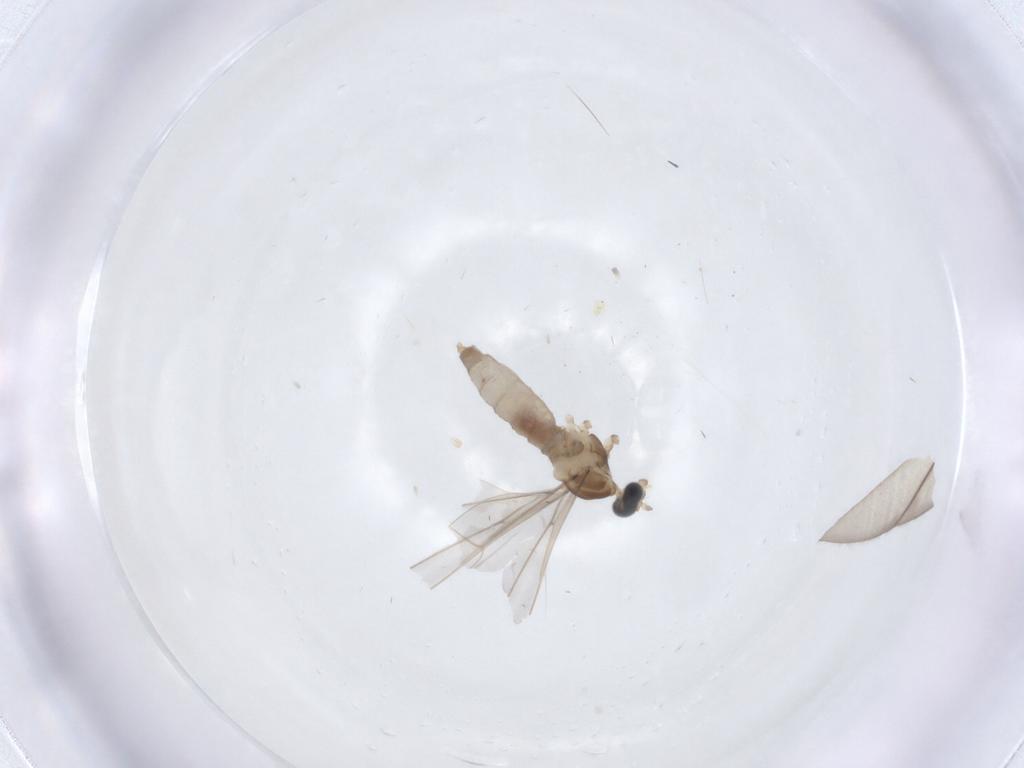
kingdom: Animalia
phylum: Arthropoda
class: Insecta
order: Diptera
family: Cecidomyiidae
